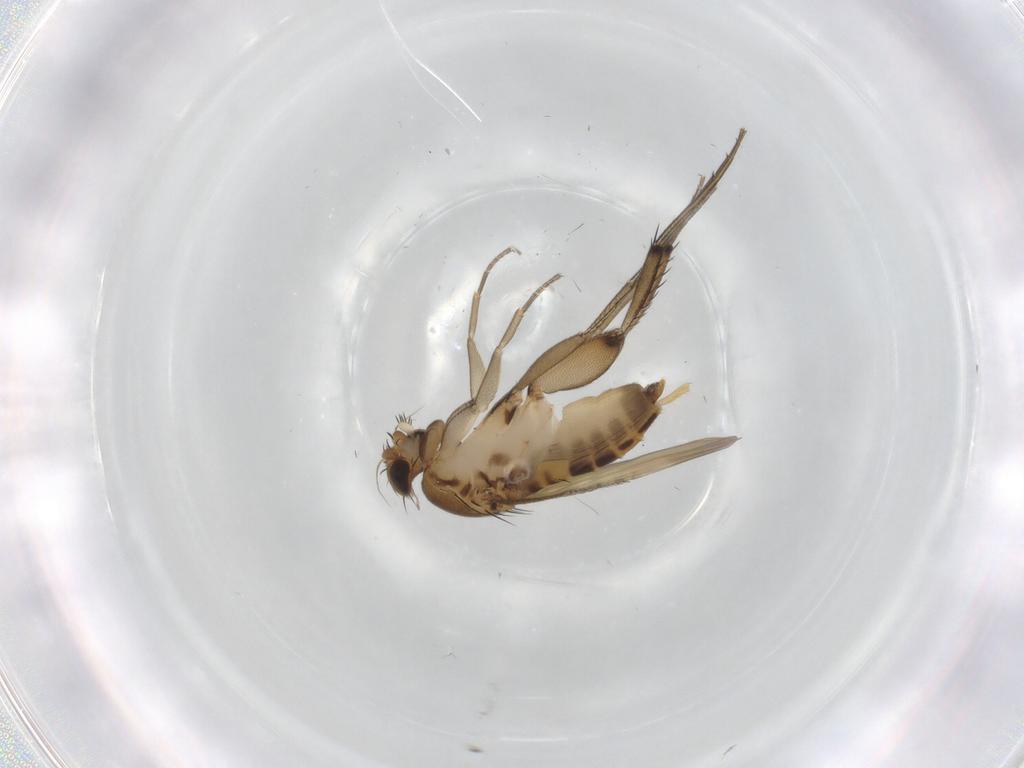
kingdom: Animalia
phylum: Arthropoda
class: Insecta
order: Diptera
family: Phoridae
